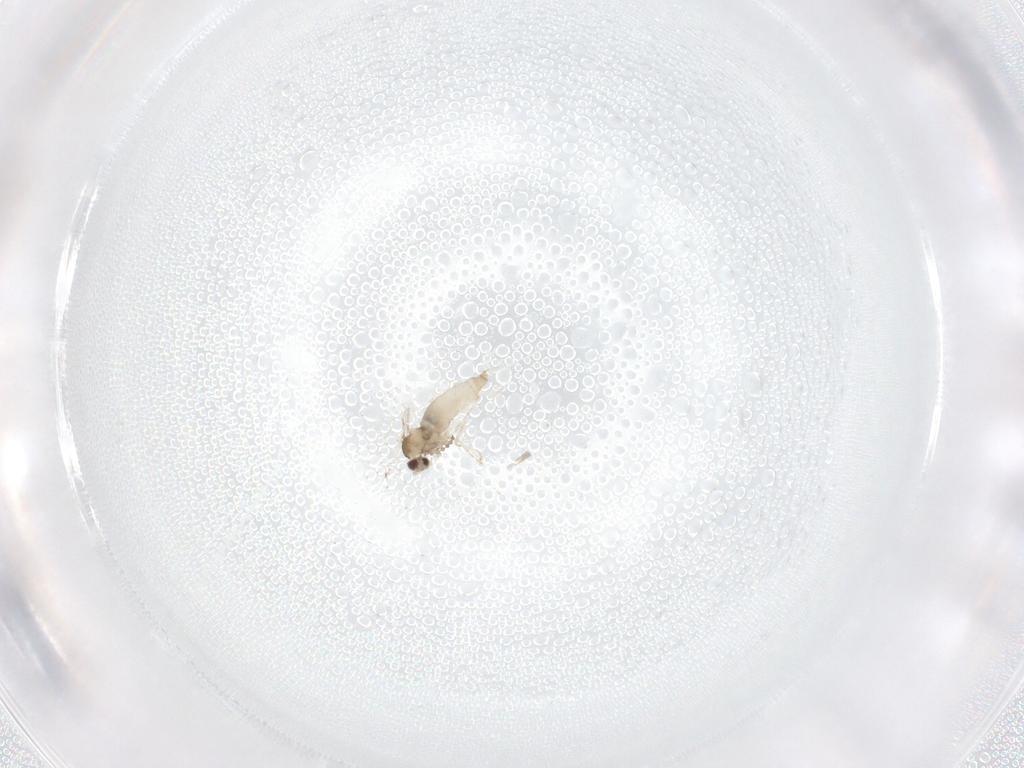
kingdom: Animalia
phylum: Arthropoda
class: Insecta
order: Diptera
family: Cecidomyiidae
